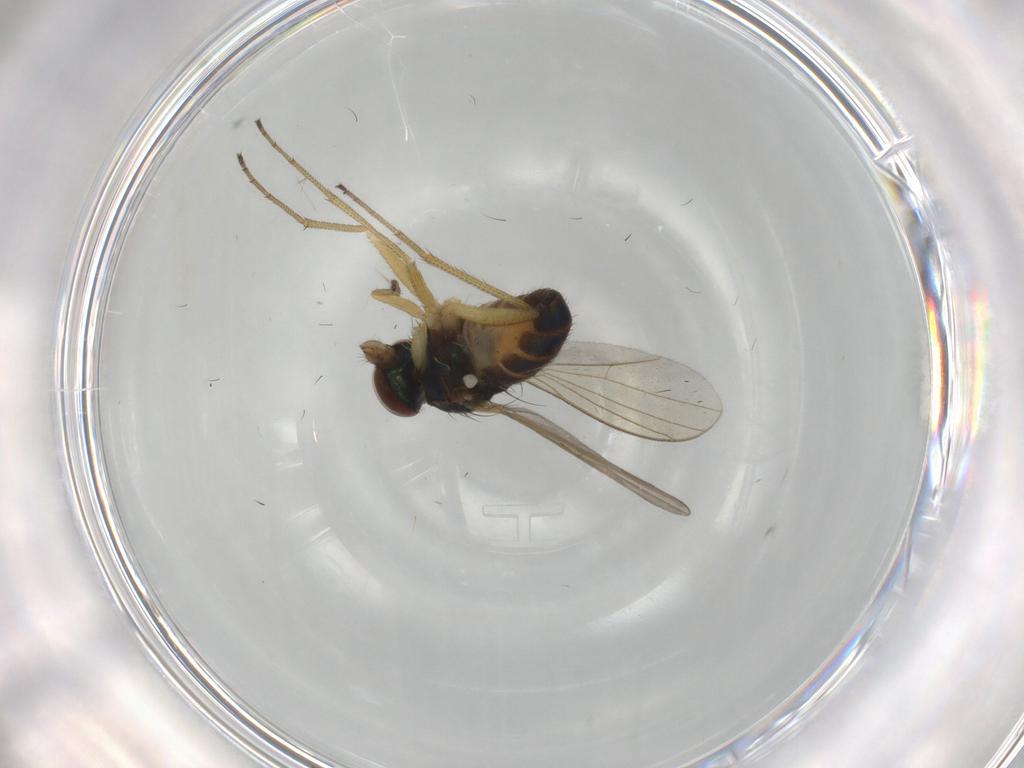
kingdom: Animalia
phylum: Arthropoda
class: Insecta
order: Diptera
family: Dolichopodidae
